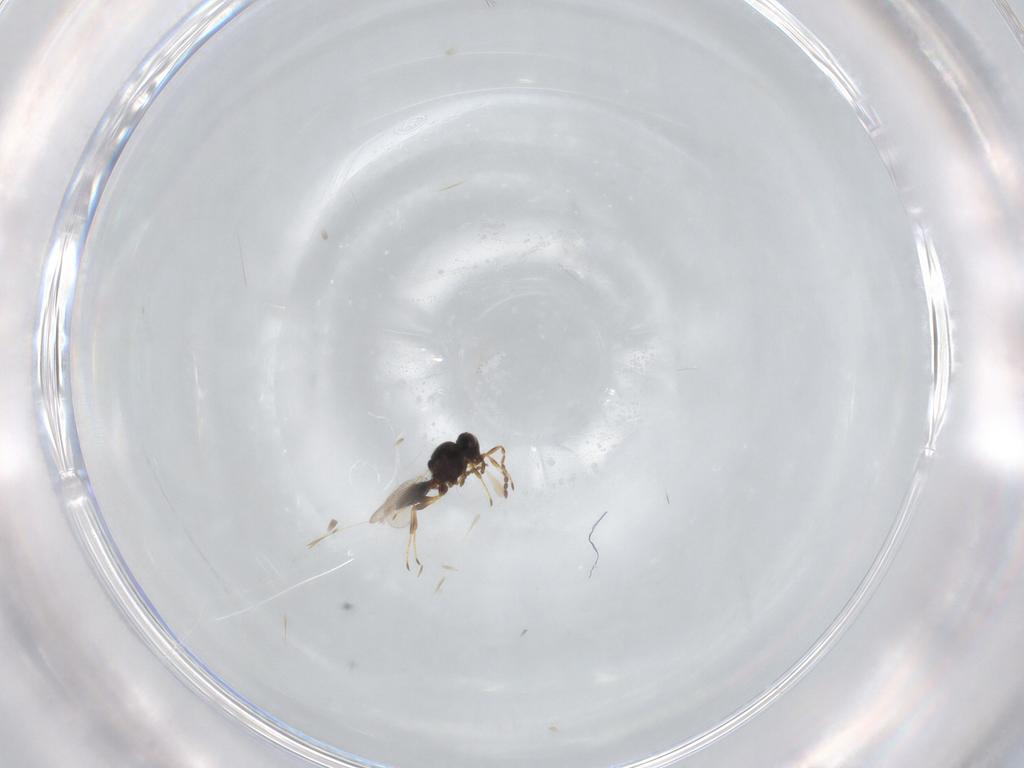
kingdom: Animalia
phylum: Arthropoda
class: Insecta
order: Hymenoptera
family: Platygastridae
